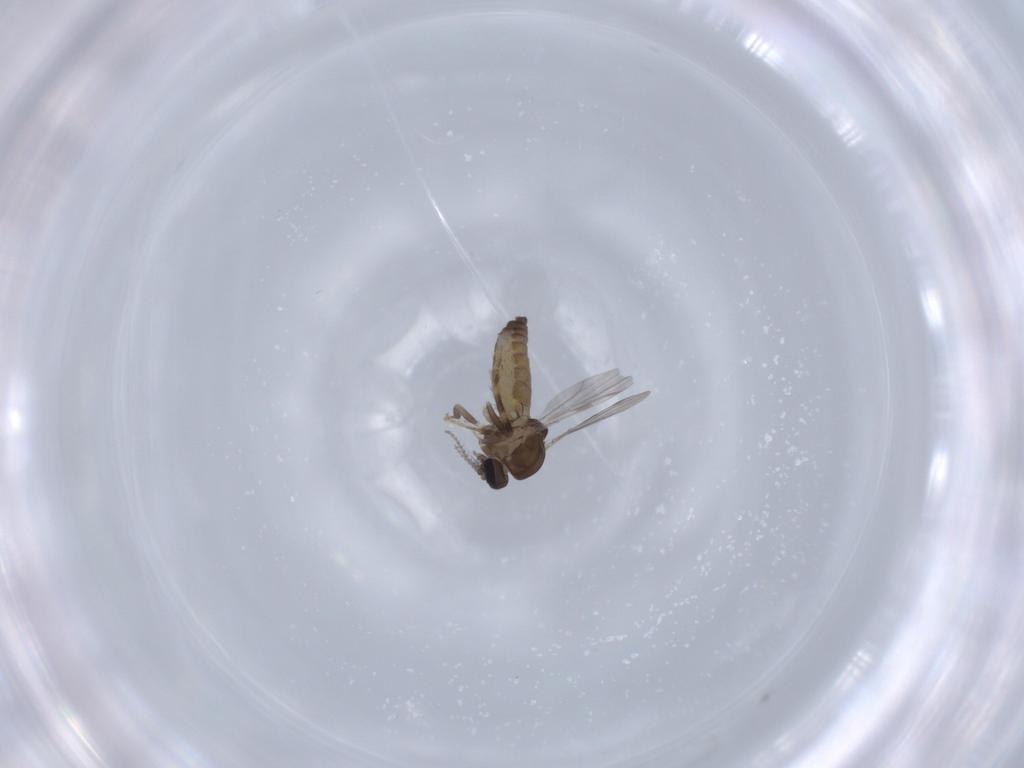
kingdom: Animalia
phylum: Arthropoda
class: Insecta
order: Diptera
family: Ceratopogonidae
